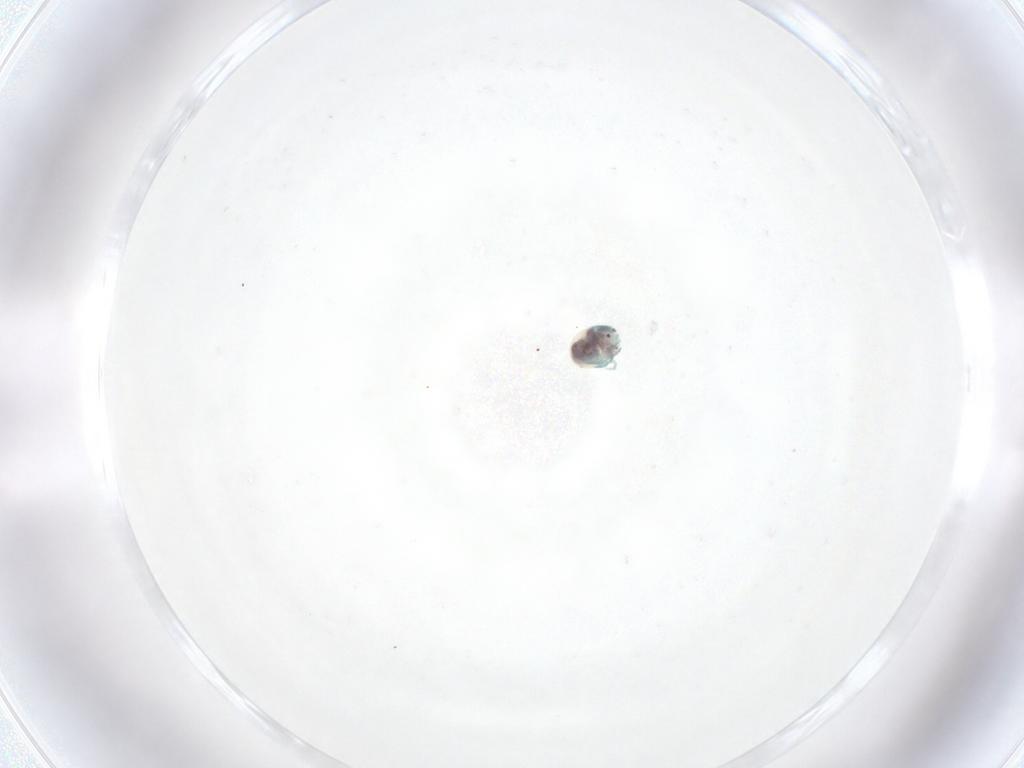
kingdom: Animalia
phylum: Arthropoda
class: Arachnida
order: Trombidiformes
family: Arrenuridae
